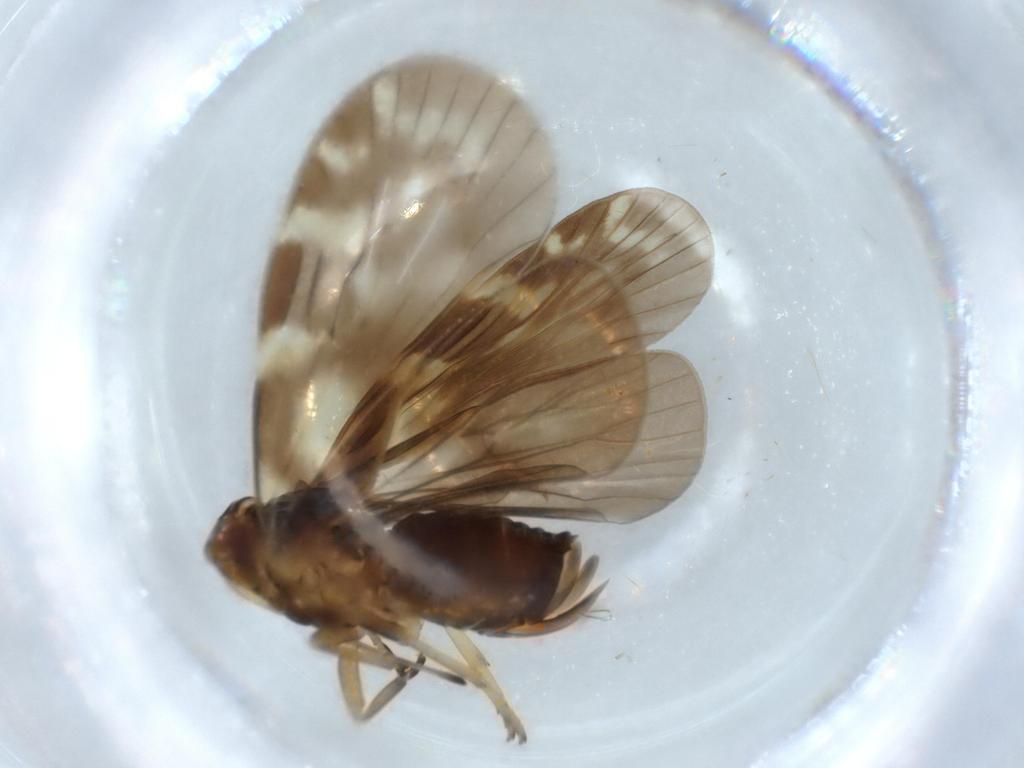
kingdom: Animalia
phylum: Arthropoda
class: Insecta
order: Hemiptera
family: Cixiidae
